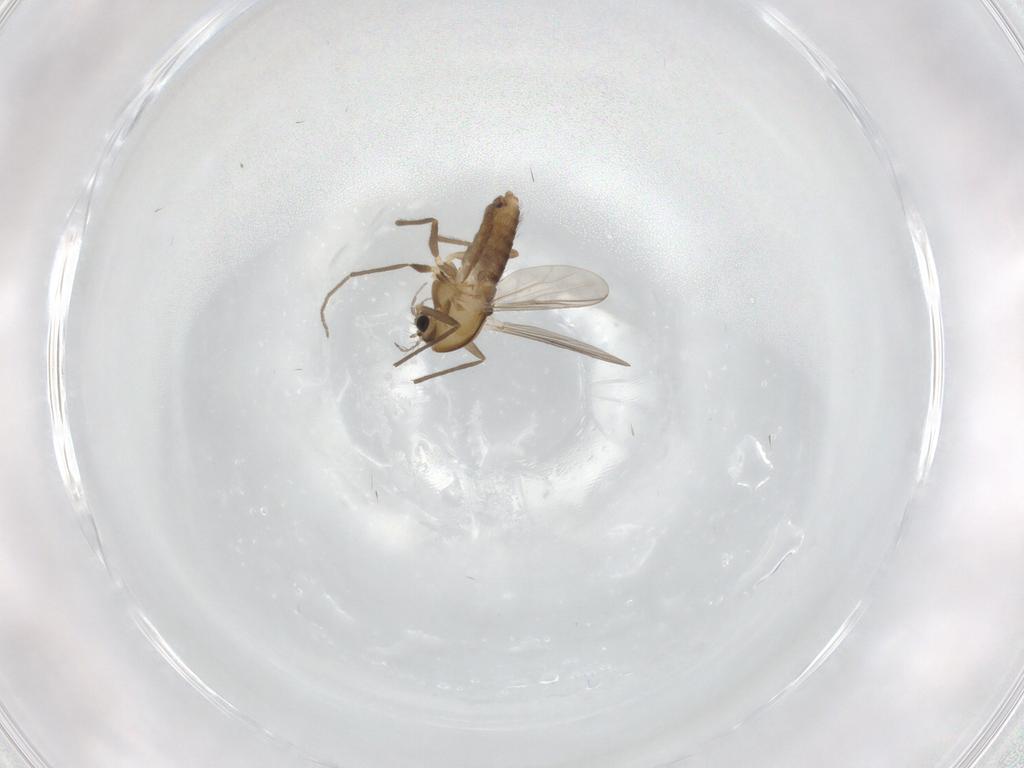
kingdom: Animalia
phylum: Arthropoda
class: Insecta
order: Diptera
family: Chironomidae
